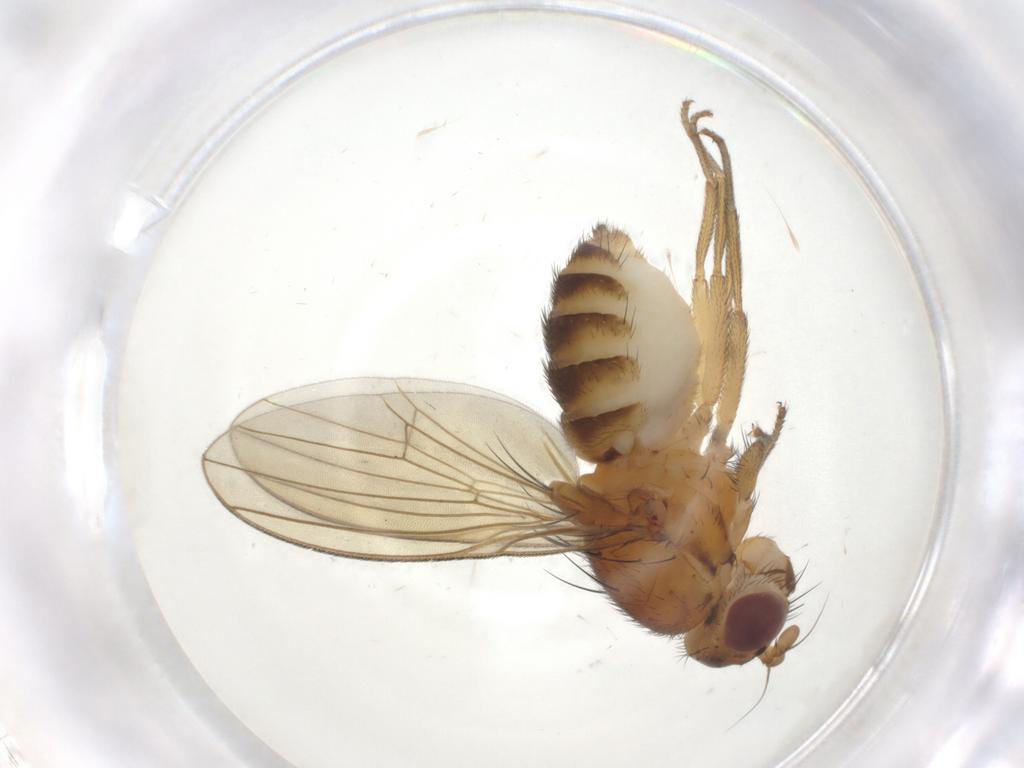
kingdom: Animalia
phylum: Arthropoda
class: Insecta
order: Diptera
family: Lauxaniidae
